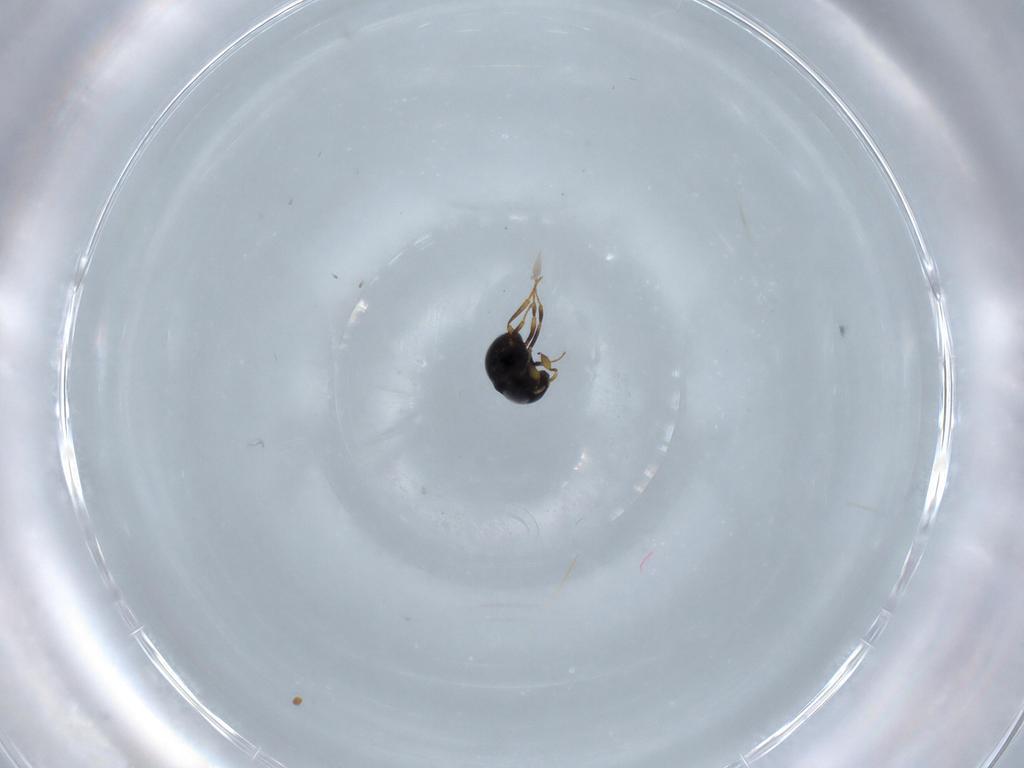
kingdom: Animalia
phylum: Arthropoda
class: Insecta
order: Hymenoptera
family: Scelionidae
